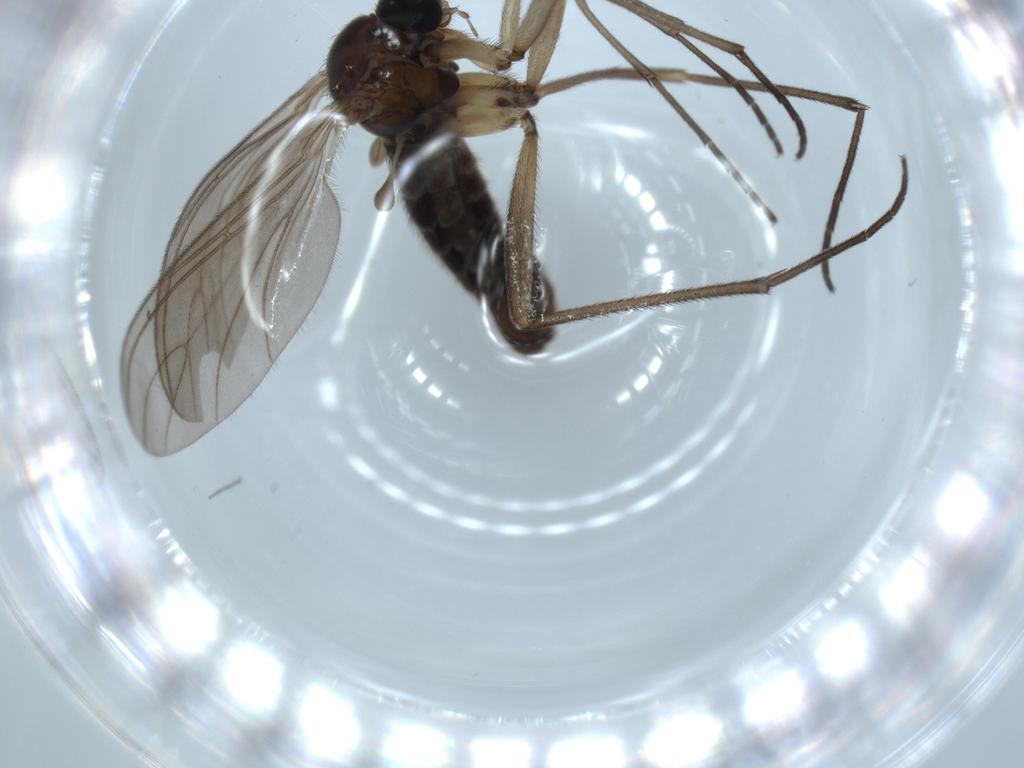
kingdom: Animalia
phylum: Arthropoda
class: Insecta
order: Diptera
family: Sciaridae
